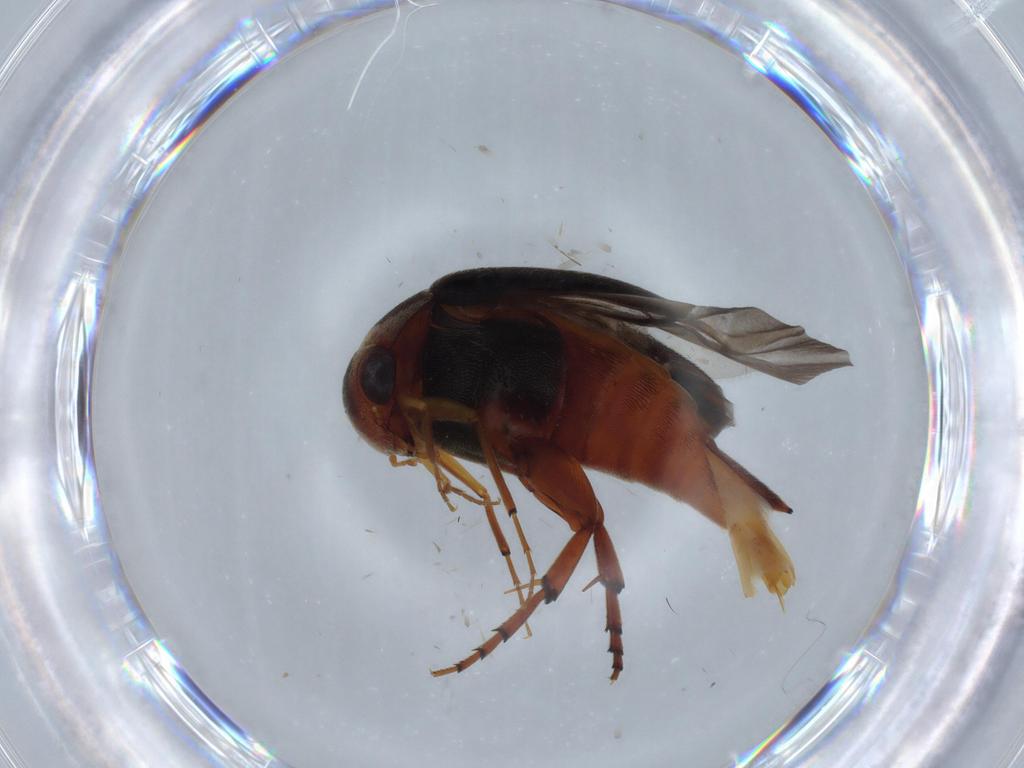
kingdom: Animalia
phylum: Arthropoda
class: Insecta
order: Coleoptera
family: Mordellidae
